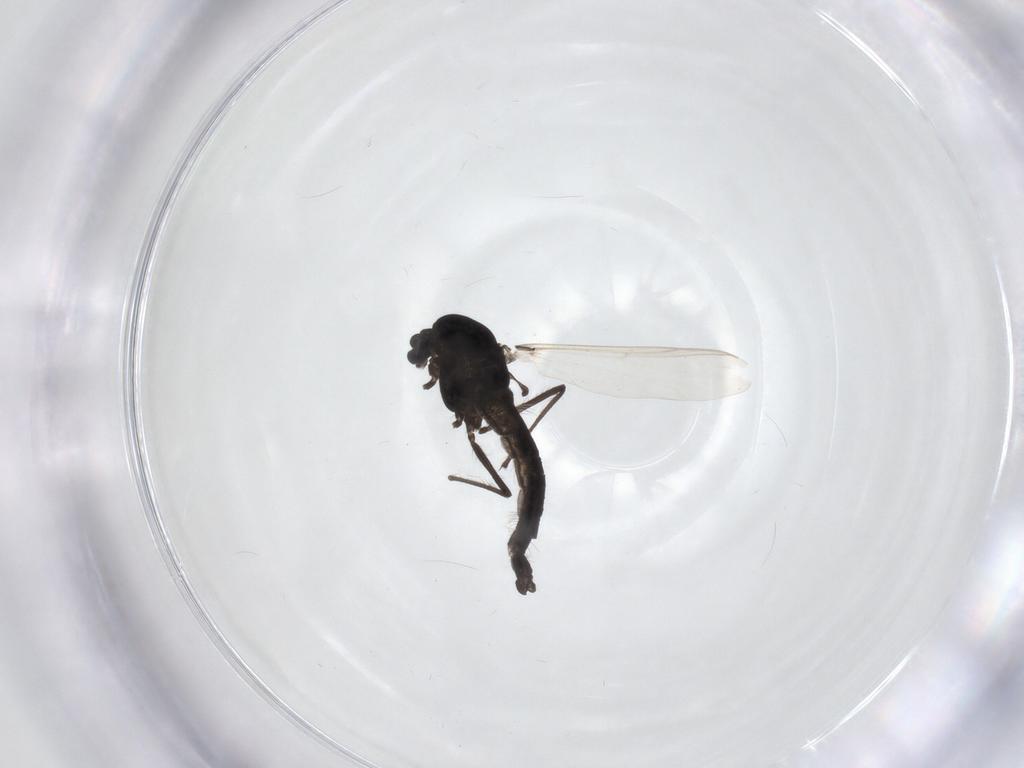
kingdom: Animalia
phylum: Arthropoda
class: Insecta
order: Diptera
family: Chironomidae
